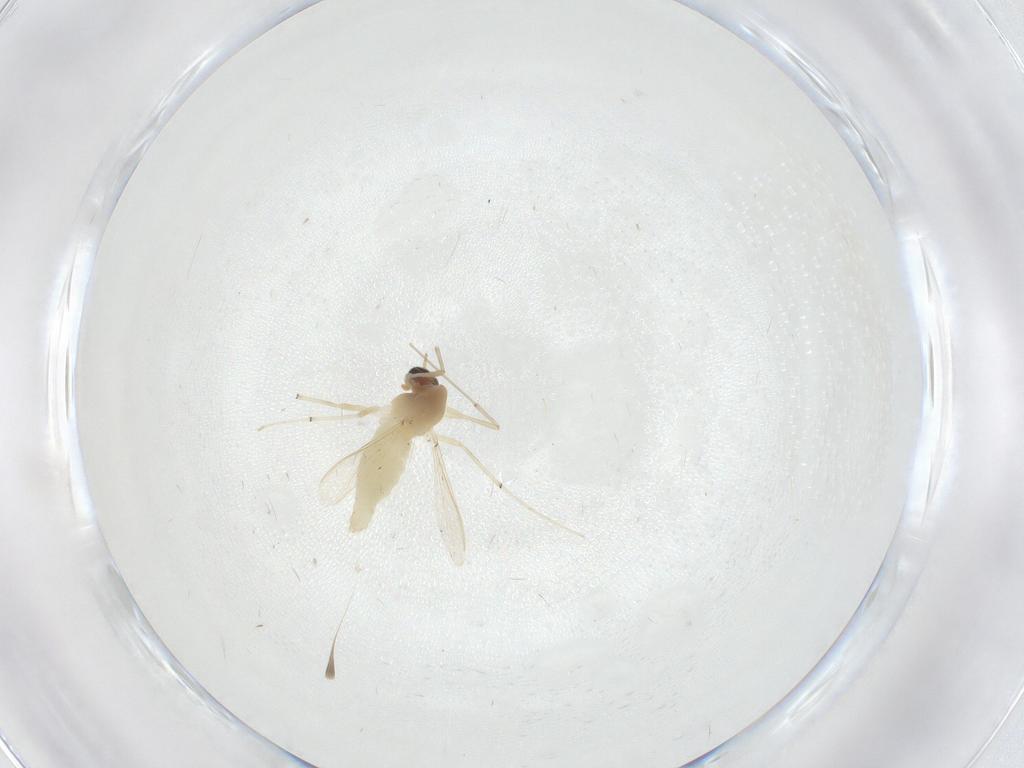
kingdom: Animalia
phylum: Arthropoda
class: Insecta
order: Diptera
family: Chironomidae
